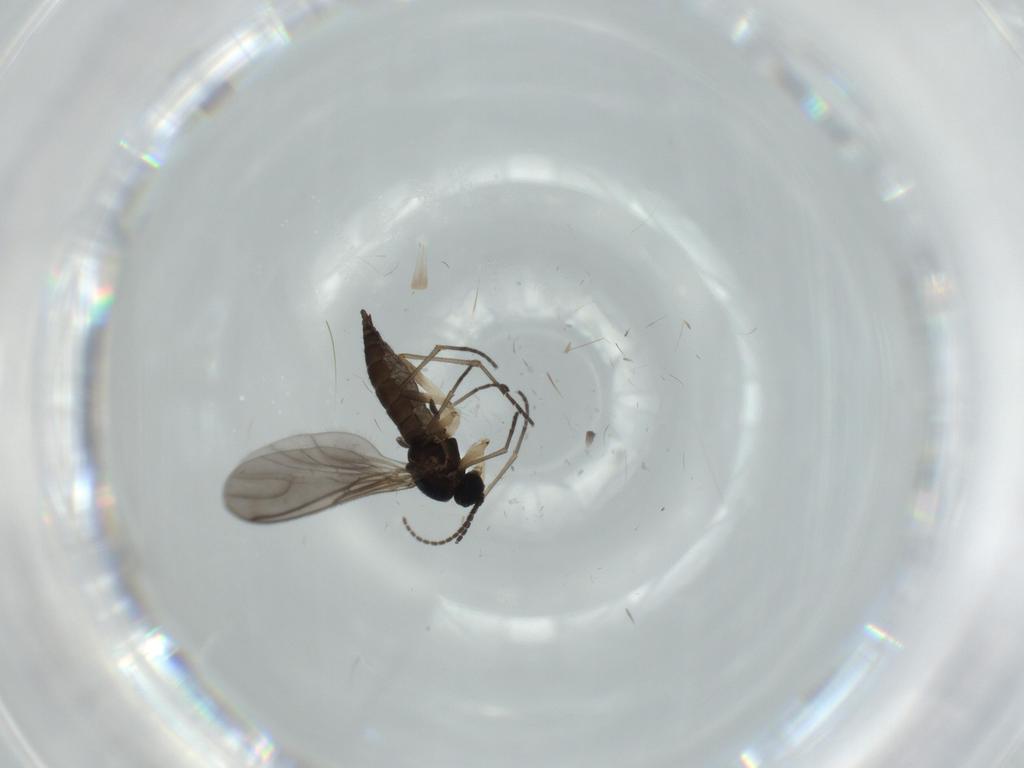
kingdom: Animalia
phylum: Arthropoda
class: Insecta
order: Diptera
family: Sciaridae
